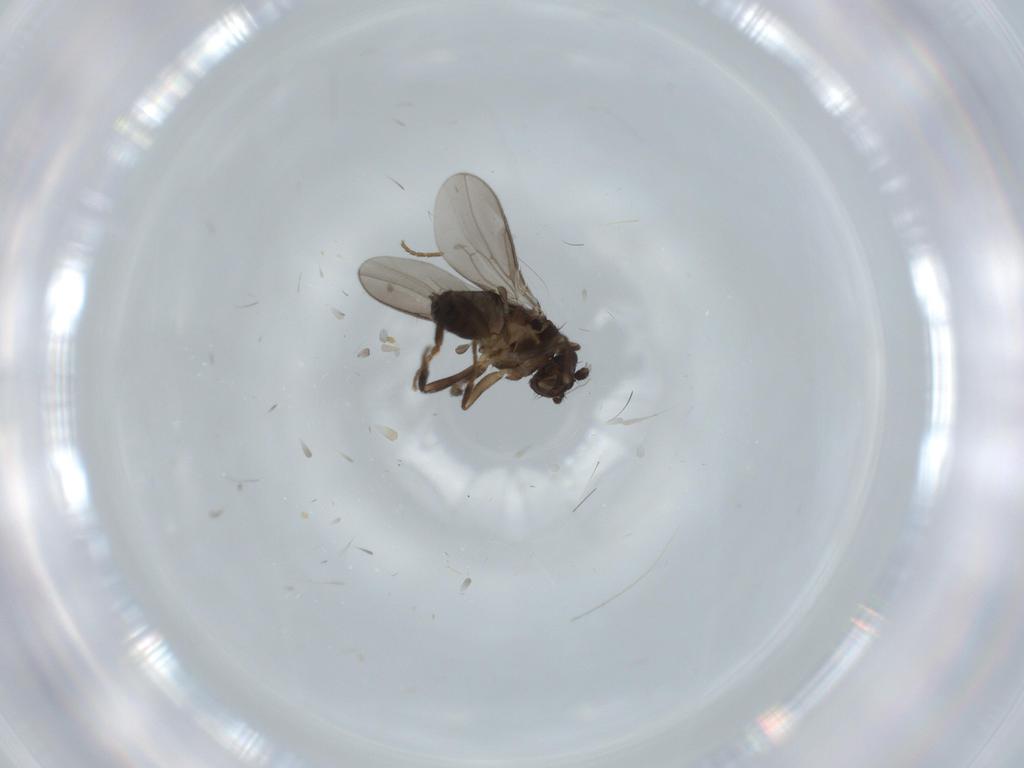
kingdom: Animalia
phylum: Arthropoda
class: Insecta
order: Diptera
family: Sphaeroceridae
